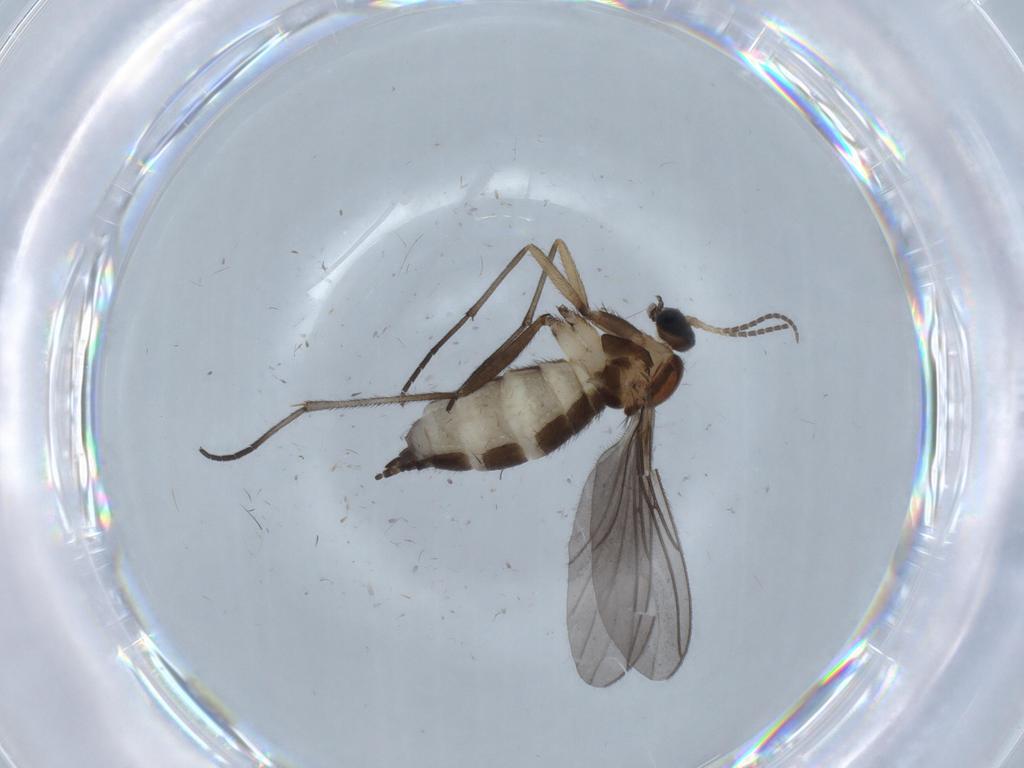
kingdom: Animalia
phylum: Arthropoda
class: Insecta
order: Diptera
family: Sciaridae
